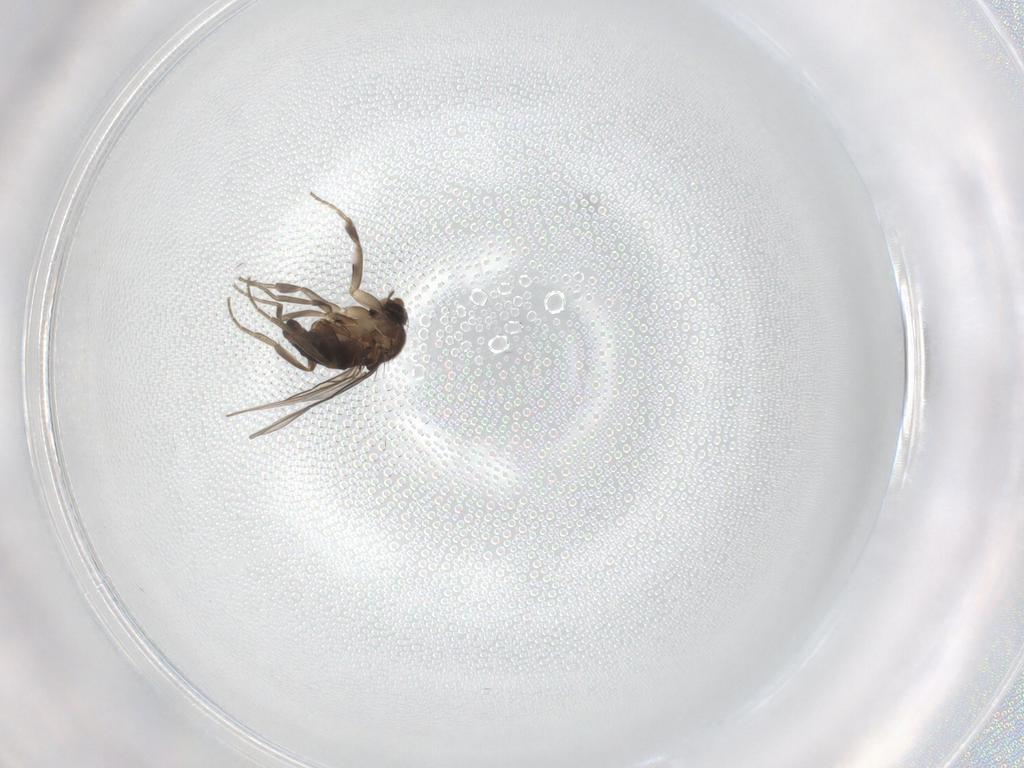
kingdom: Animalia
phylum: Arthropoda
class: Insecta
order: Diptera
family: Phoridae
